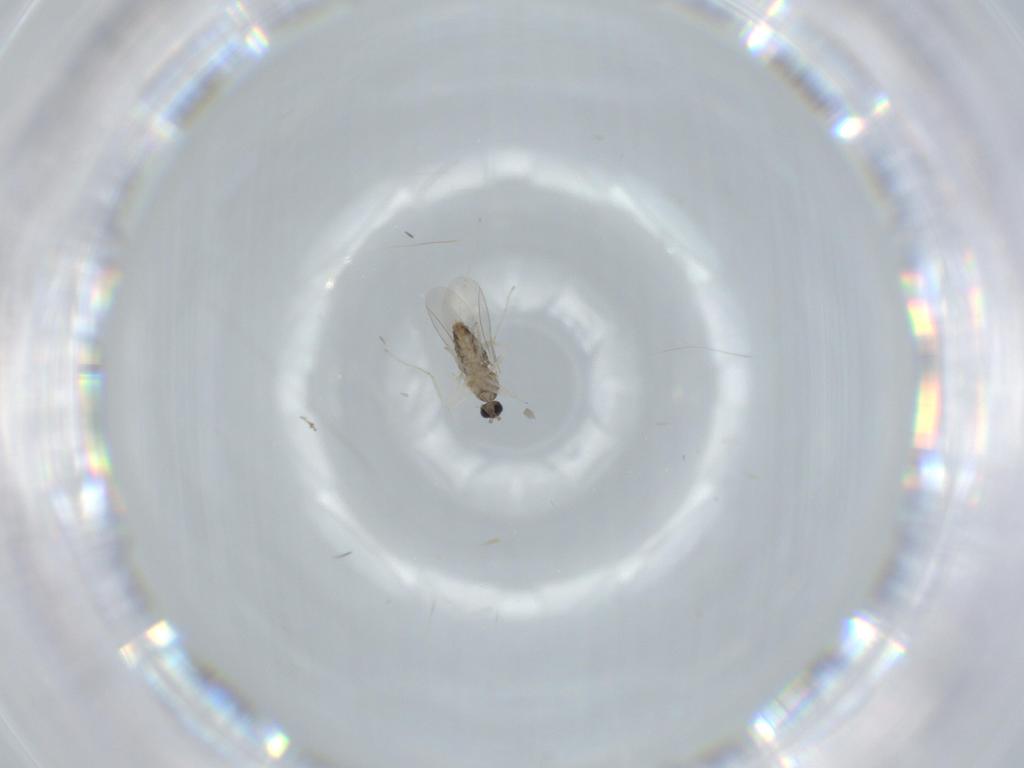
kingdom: Animalia
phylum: Arthropoda
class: Insecta
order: Diptera
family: Cecidomyiidae
